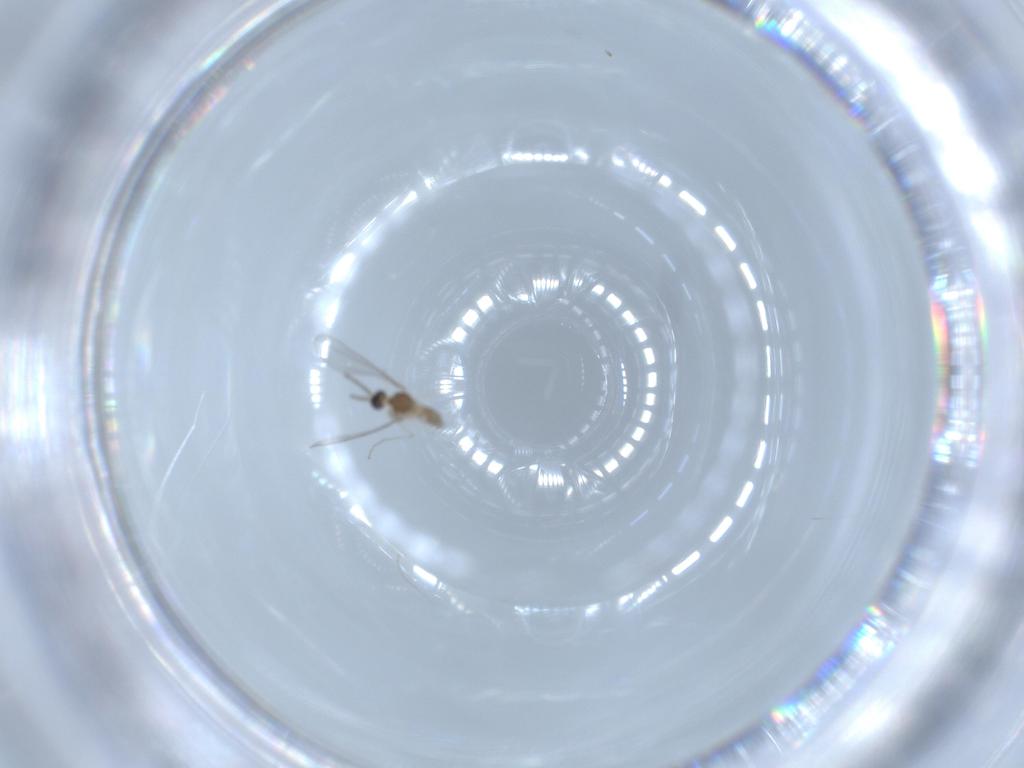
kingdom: Animalia
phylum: Arthropoda
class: Insecta
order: Diptera
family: Cecidomyiidae
